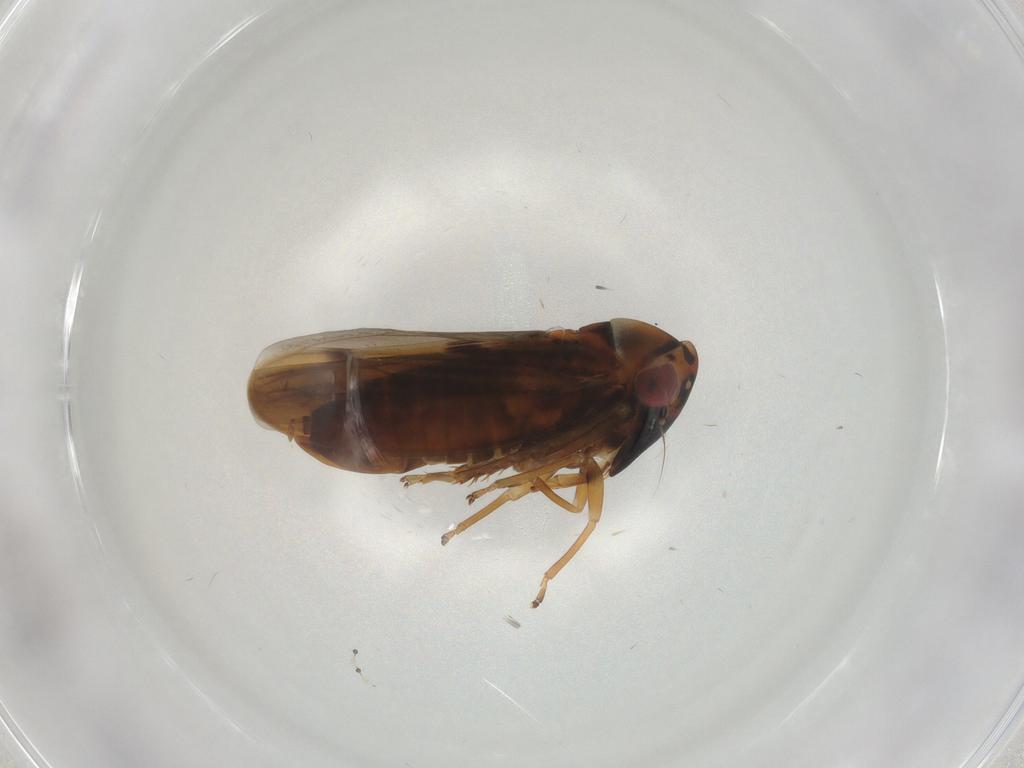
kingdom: Animalia
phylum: Arthropoda
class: Insecta
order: Hemiptera
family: Cicadellidae
